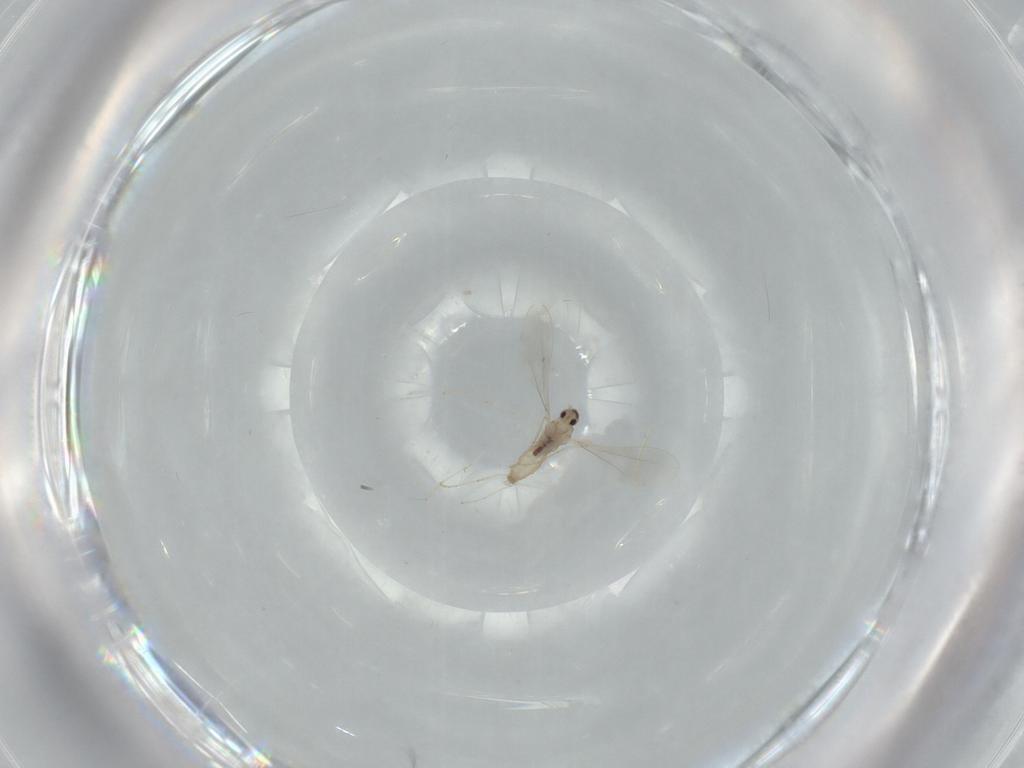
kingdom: Animalia
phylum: Arthropoda
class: Insecta
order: Diptera
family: Cecidomyiidae
